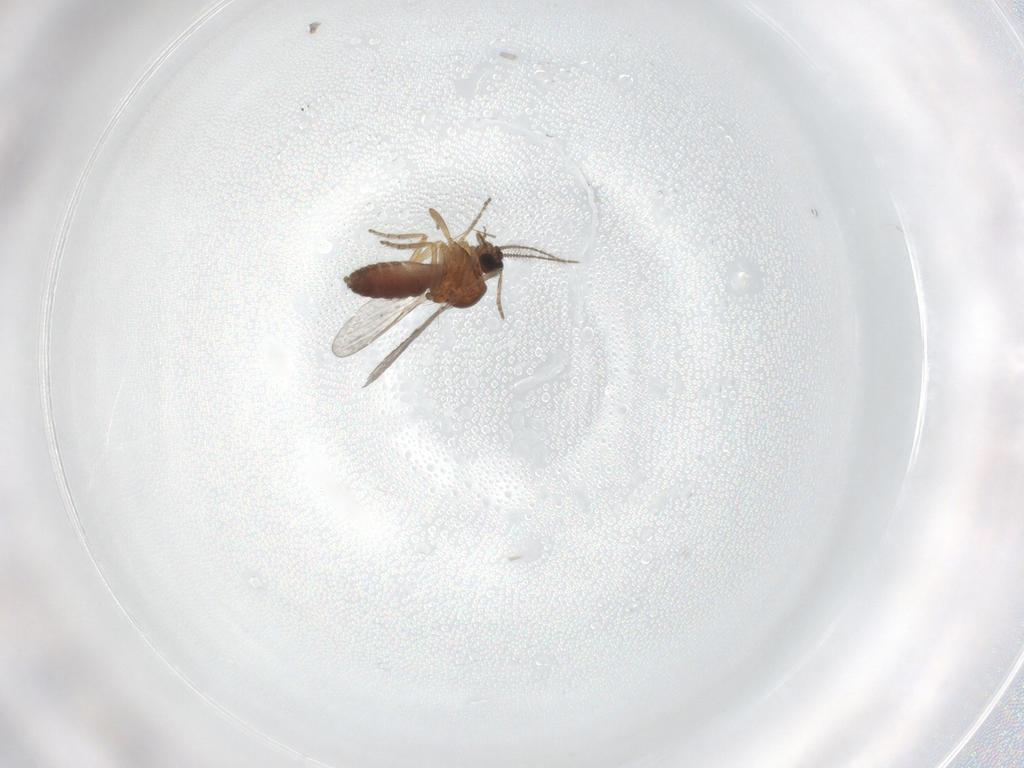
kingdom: Animalia
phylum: Arthropoda
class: Insecta
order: Diptera
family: Ceratopogonidae
